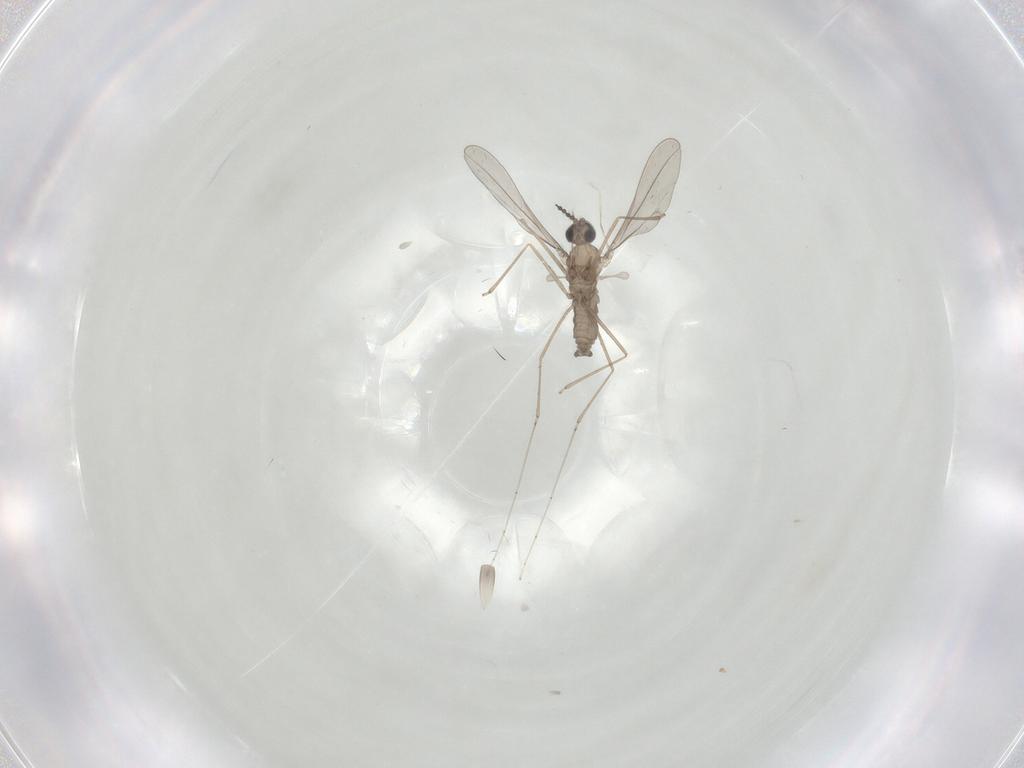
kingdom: Animalia
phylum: Arthropoda
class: Insecta
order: Diptera
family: Cecidomyiidae
